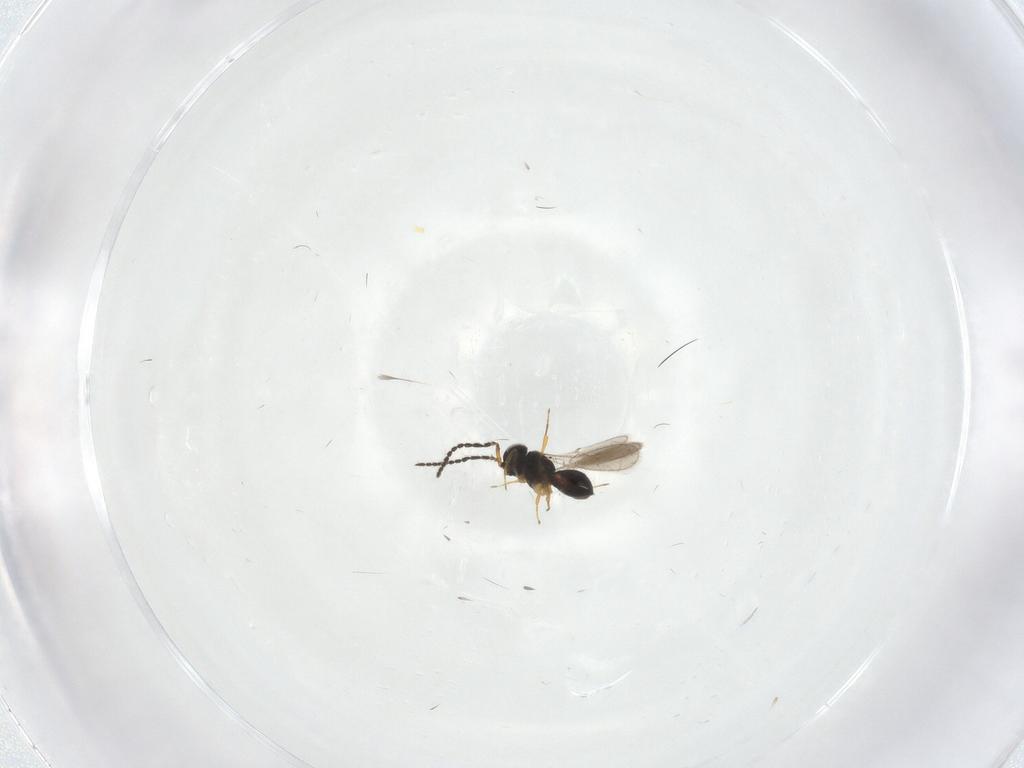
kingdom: Animalia
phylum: Arthropoda
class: Insecta
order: Hymenoptera
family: Scelionidae
